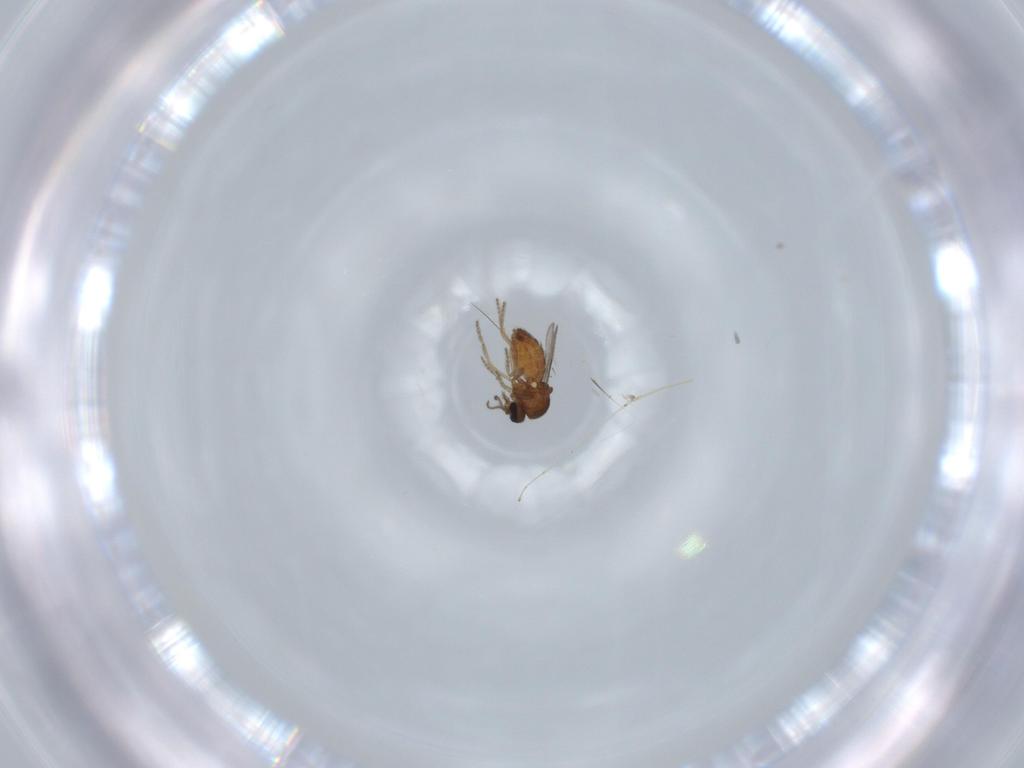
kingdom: Animalia
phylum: Arthropoda
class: Insecta
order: Diptera
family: Ceratopogonidae
